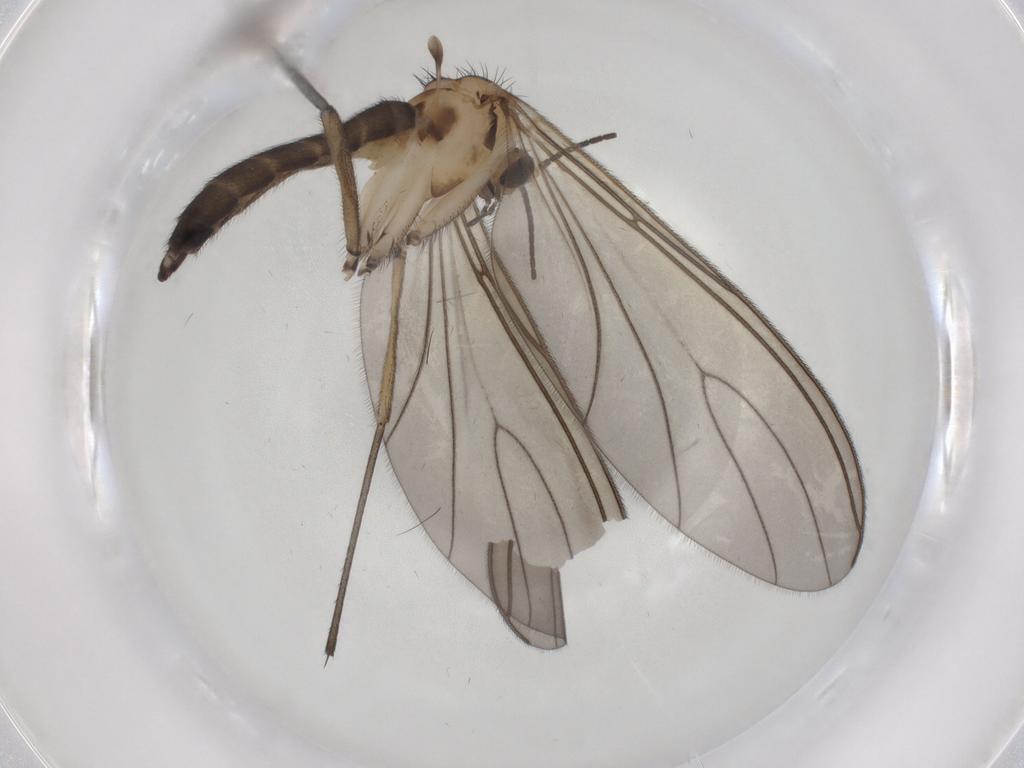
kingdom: Animalia
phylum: Arthropoda
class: Insecta
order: Diptera
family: Sciaridae
